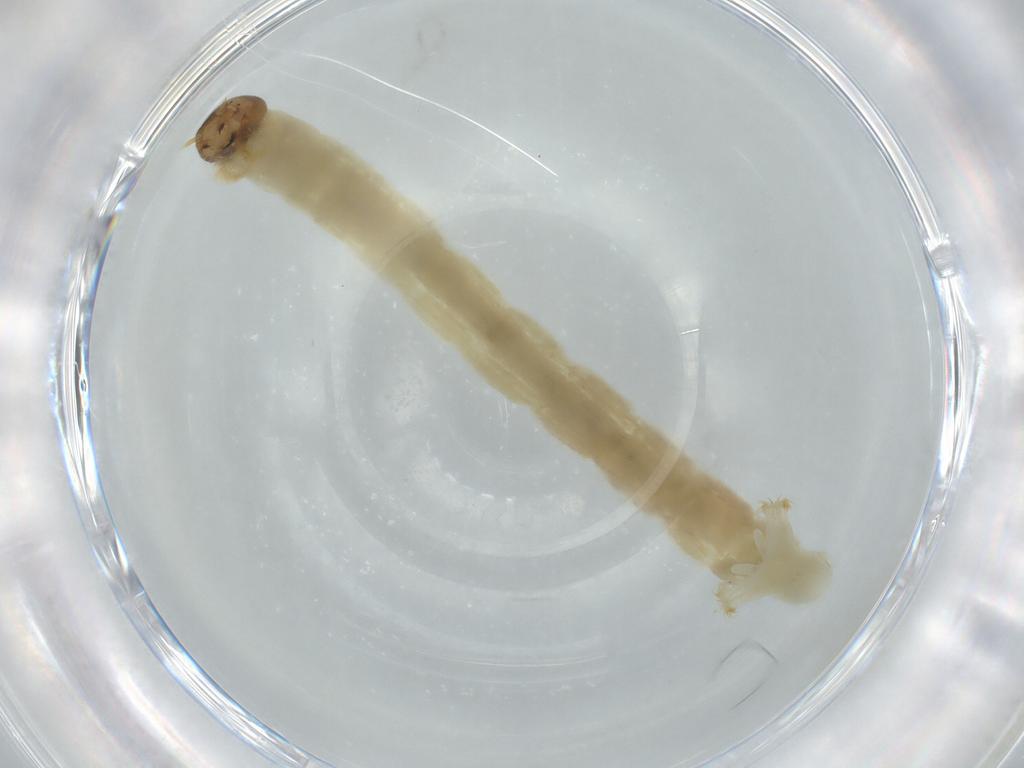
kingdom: Animalia
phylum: Arthropoda
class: Insecta
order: Diptera
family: Chironomidae
